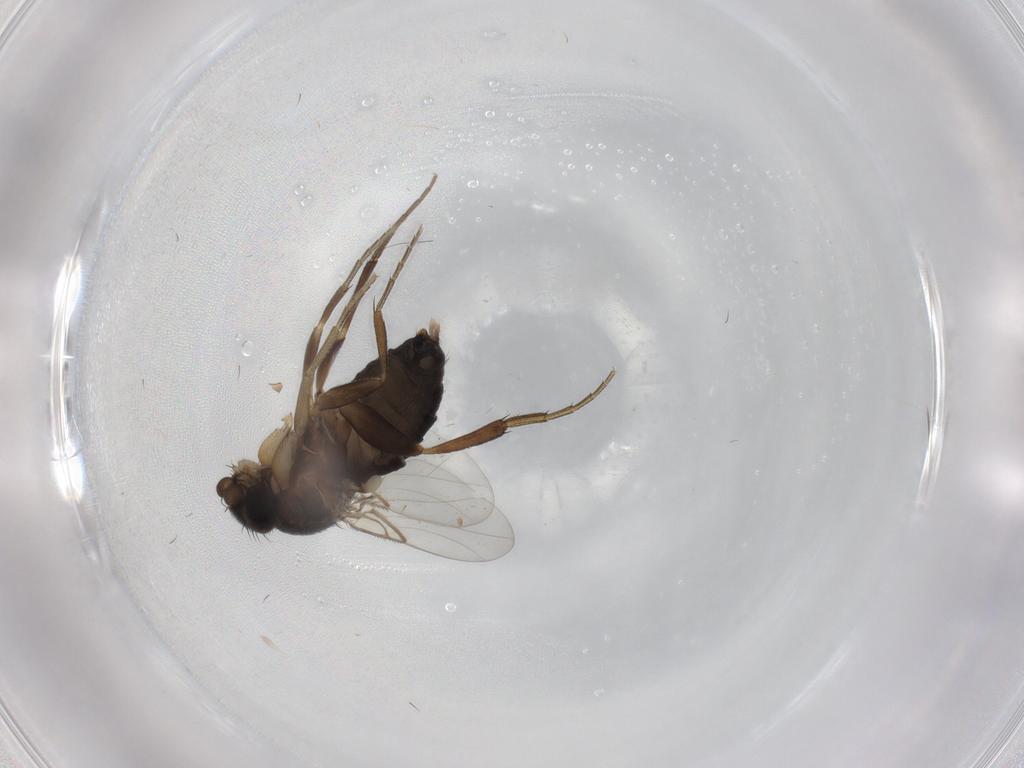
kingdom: Animalia
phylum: Arthropoda
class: Insecta
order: Diptera
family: Phoridae
